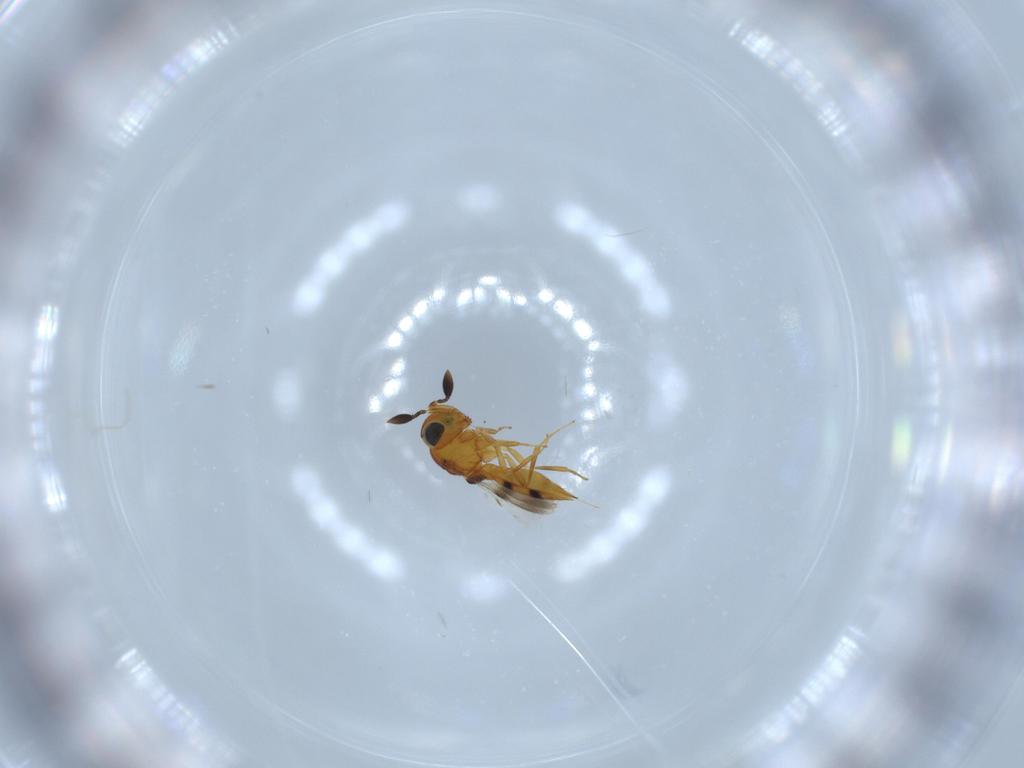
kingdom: Animalia
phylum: Arthropoda
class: Insecta
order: Hymenoptera
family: Scelionidae
